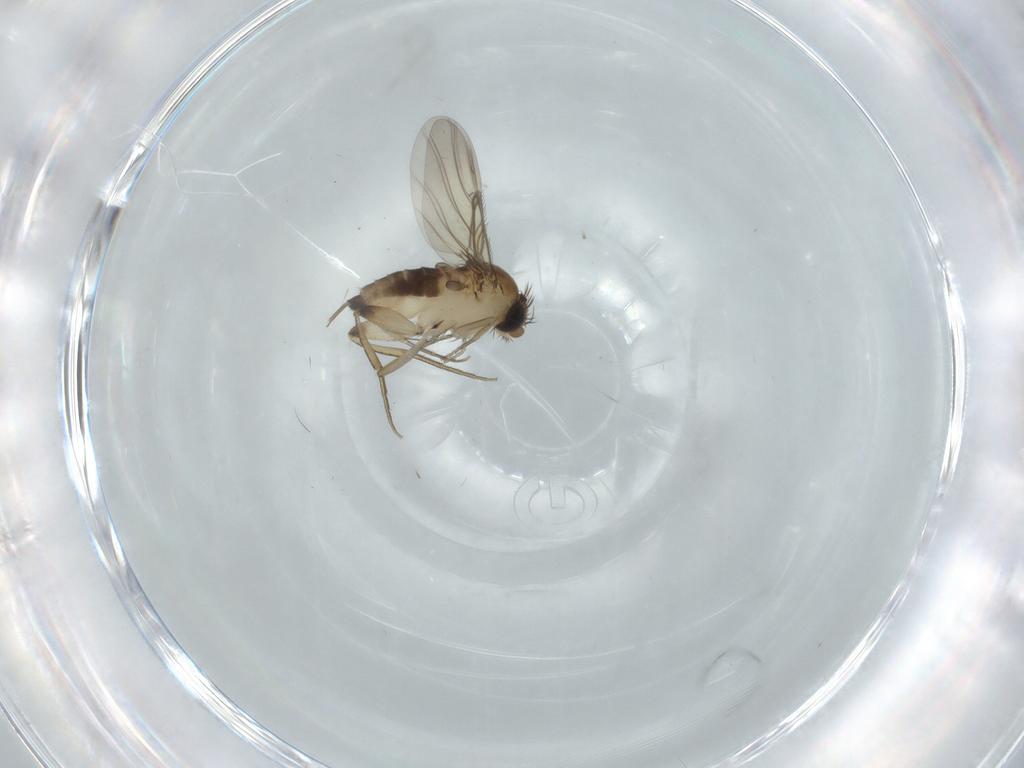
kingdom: Animalia
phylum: Arthropoda
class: Insecta
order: Diptera
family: Phoridae
